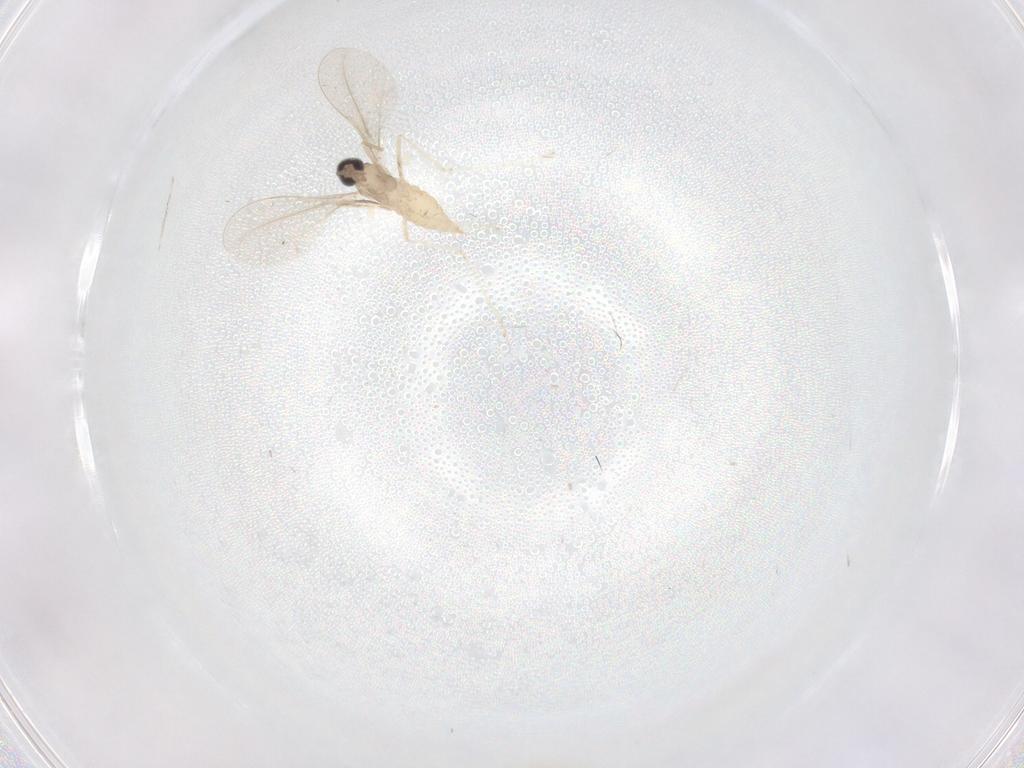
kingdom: Animalia
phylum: Arthropoda
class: Insecta
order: Diptera
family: Cecidomyiidae
